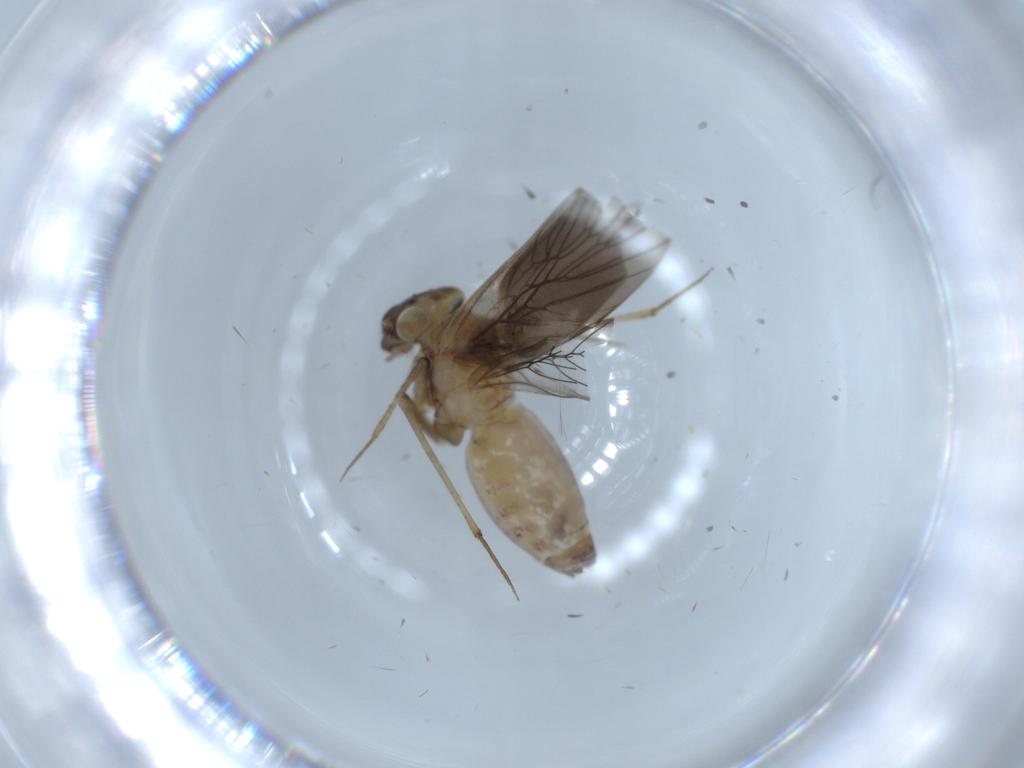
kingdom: Animalia
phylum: Arthropoda
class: Insecta
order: Psocodea
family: Lepidopsocidae
